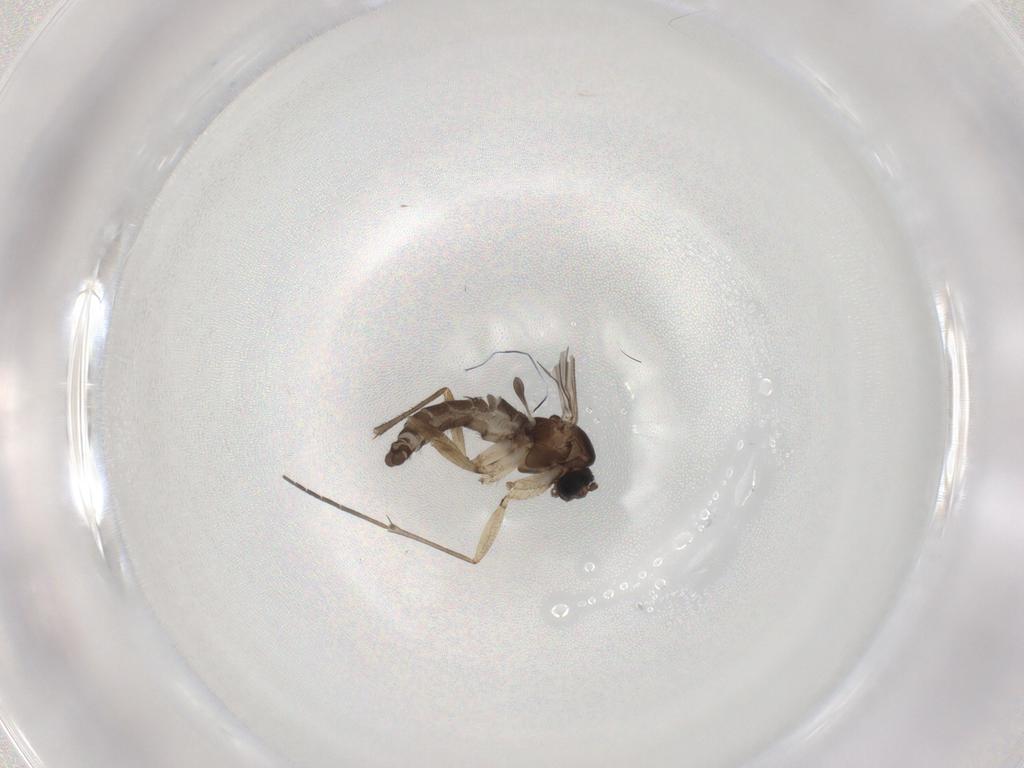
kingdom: Animalia
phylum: Arthropoda
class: Insecta
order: Diptera
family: Sciaridae
